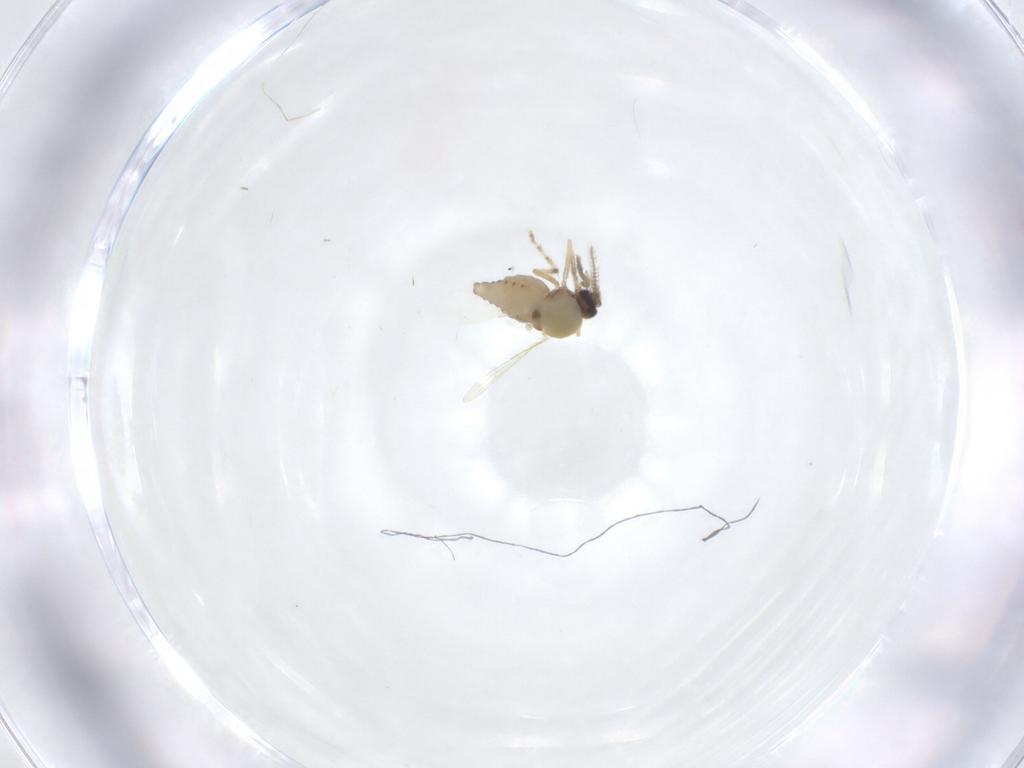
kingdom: Animalia
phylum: Arthropoda
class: Insecta
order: Diptera
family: Ceratopogonidae
